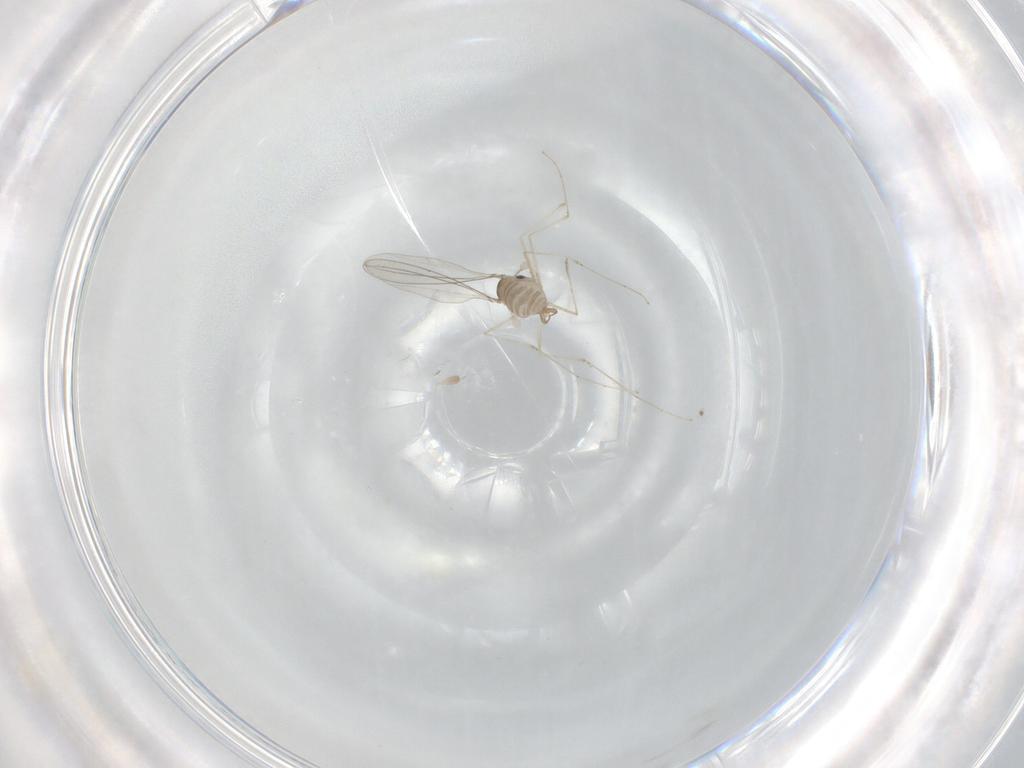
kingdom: Animalia
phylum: Arthropoda
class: Insecta
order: Diptera
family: Cecidomyiidae
